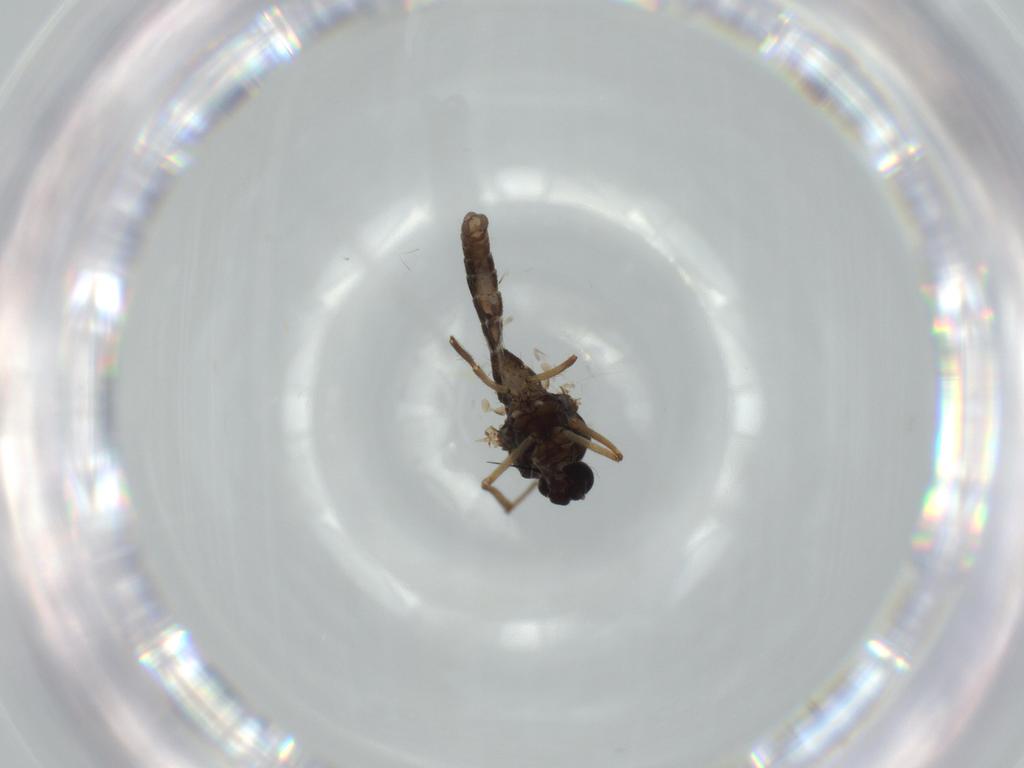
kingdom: Animalia
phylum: Arthropoda
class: Insecta
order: Diptera
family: Ceratopogonidae
